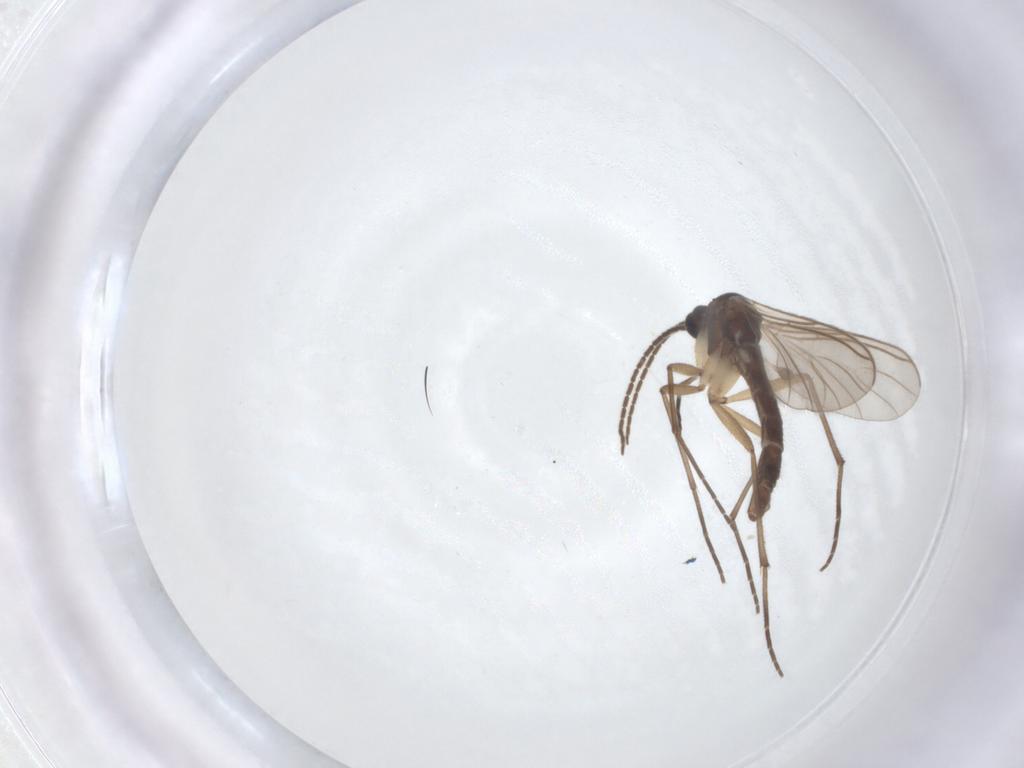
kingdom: Animalia
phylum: Arthropoda
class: Insecta
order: Diptera
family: Sciaridae
